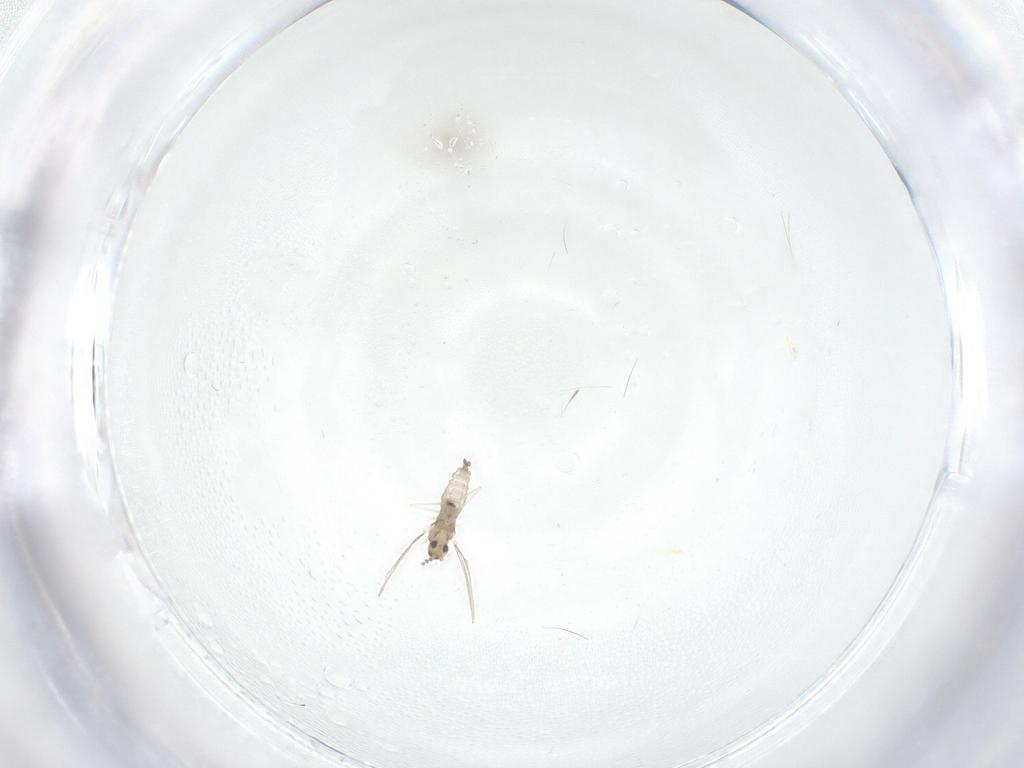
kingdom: Animalia
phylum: Arthropoda
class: Insecta
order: Diptera
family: Cecidomyiidae
